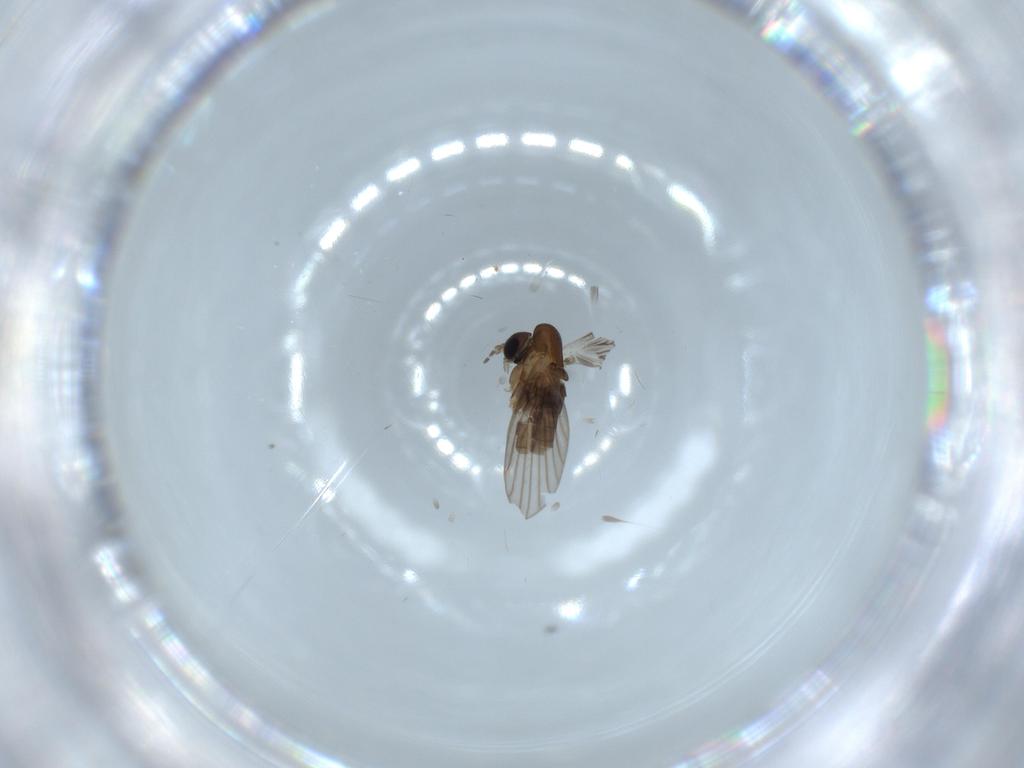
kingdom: Animalia
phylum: Arthropoda
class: Insecta
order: Diptera
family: Psychodidae
